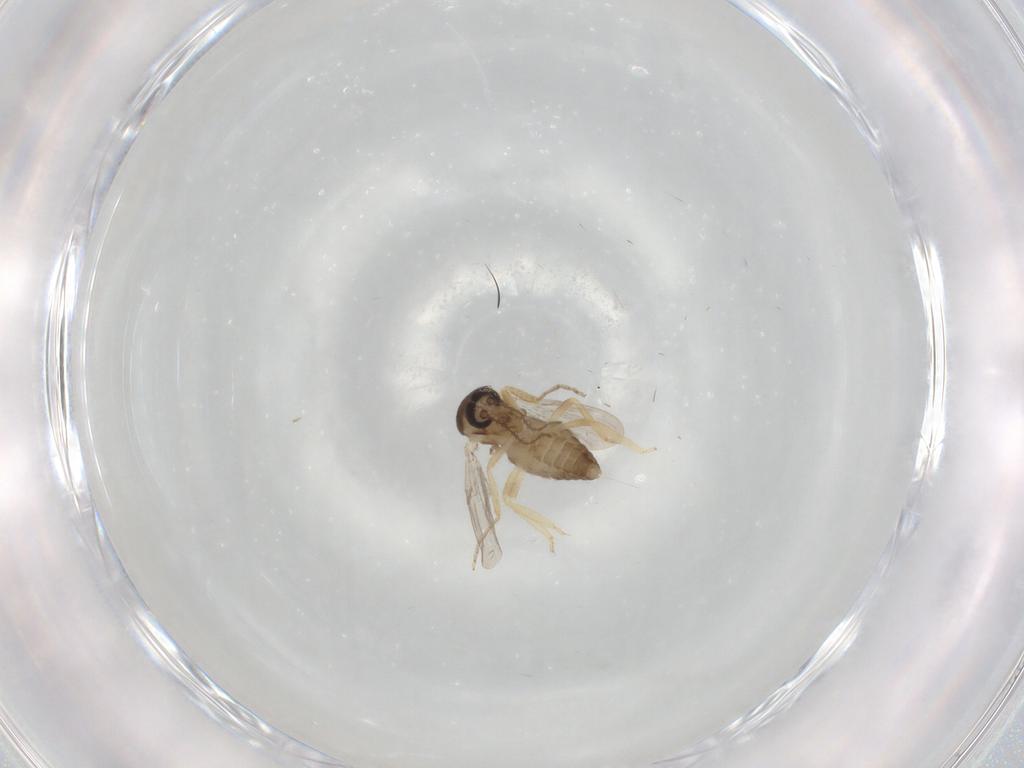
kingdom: Animalia
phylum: Arthropoda
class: Insecta
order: Diptera
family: Ceratopogonidae
